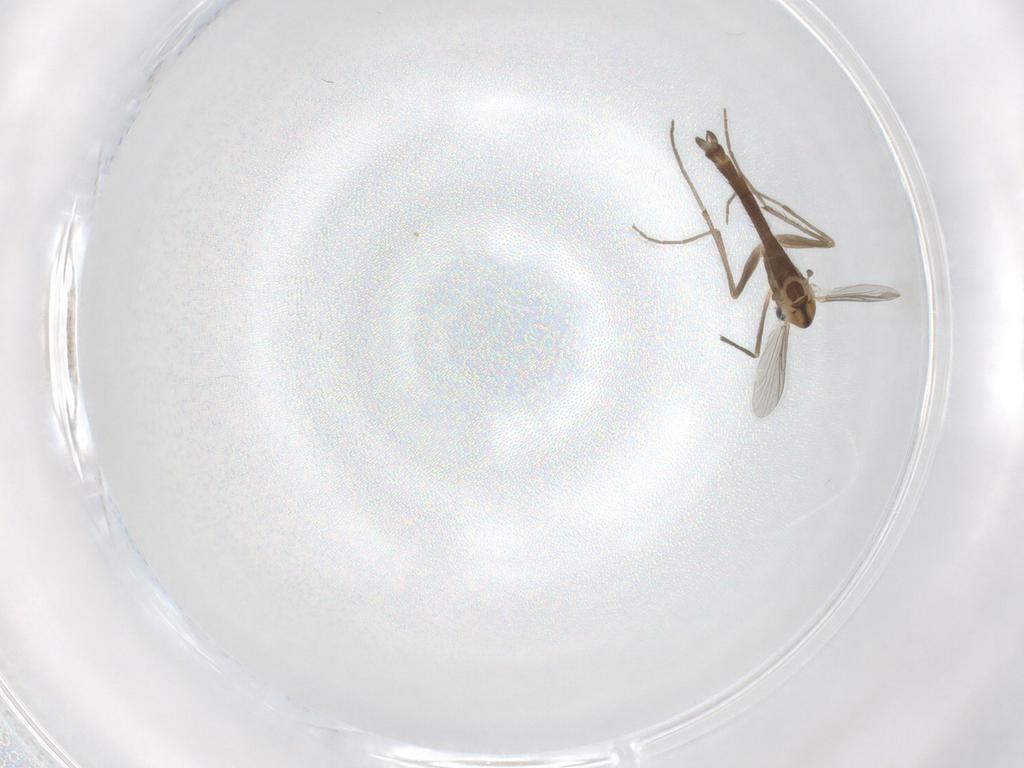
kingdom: Animalia
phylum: Arthropoda
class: Insecta
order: Diptera
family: Chironomidae
